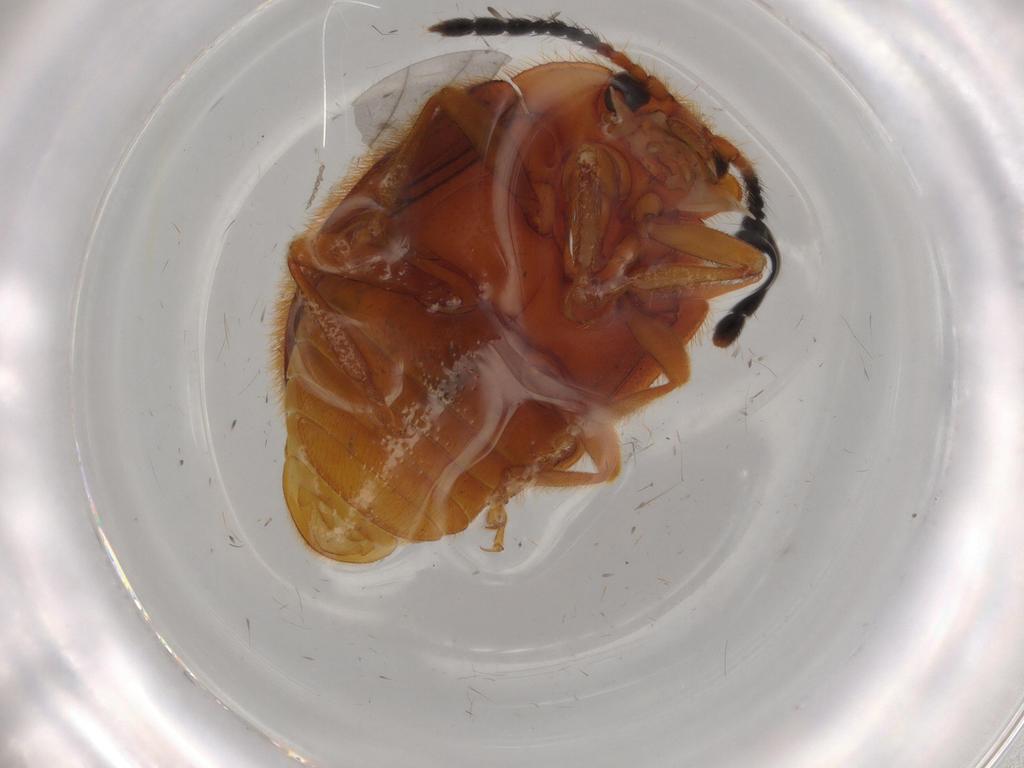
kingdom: Animalia
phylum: Arthropoda
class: Insecta
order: Coleoptera
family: Endomychidae
